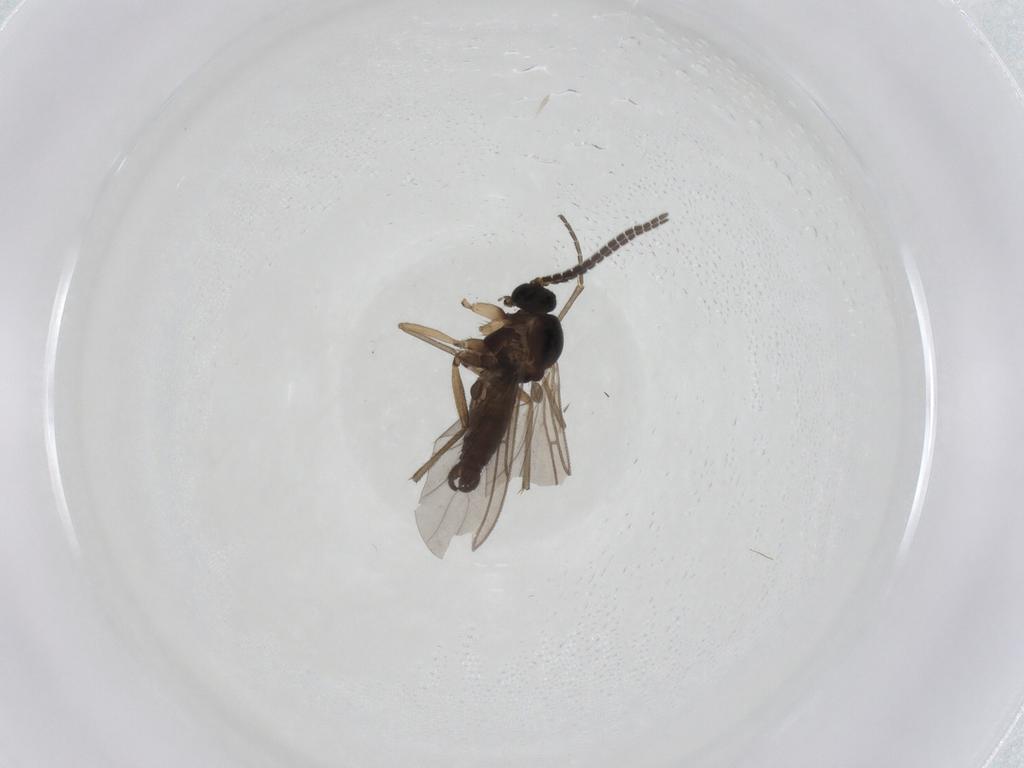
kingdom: Animalia
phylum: Arthropoda
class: Insecta
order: Diptera
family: Sciaridae
